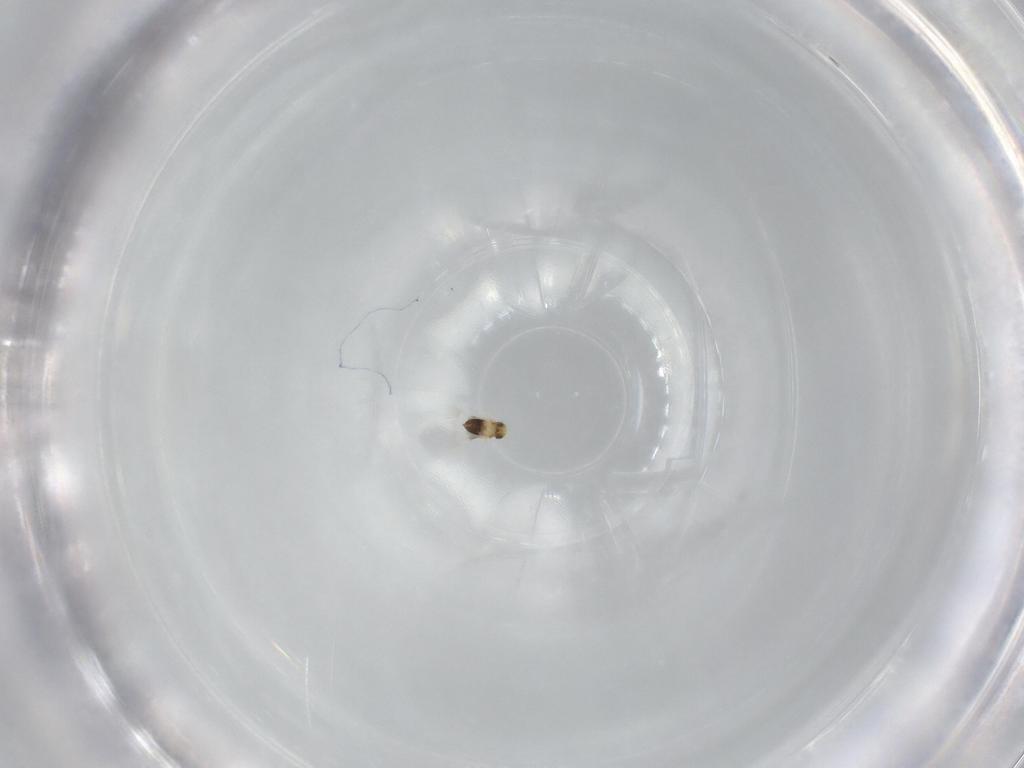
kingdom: Animalia
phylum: Arthropoda
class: Insecta
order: Hymenoptera
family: Signiphoridae
